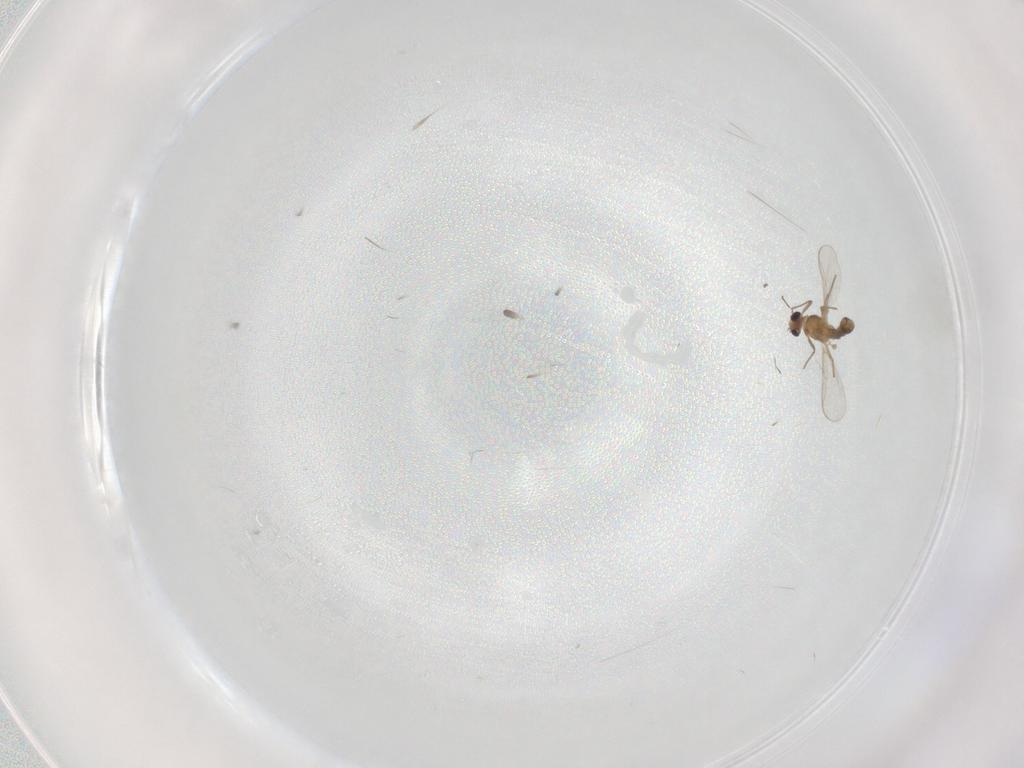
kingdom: Animalia
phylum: Arthropoda
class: Insecta
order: Diptera
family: Chironomidae
